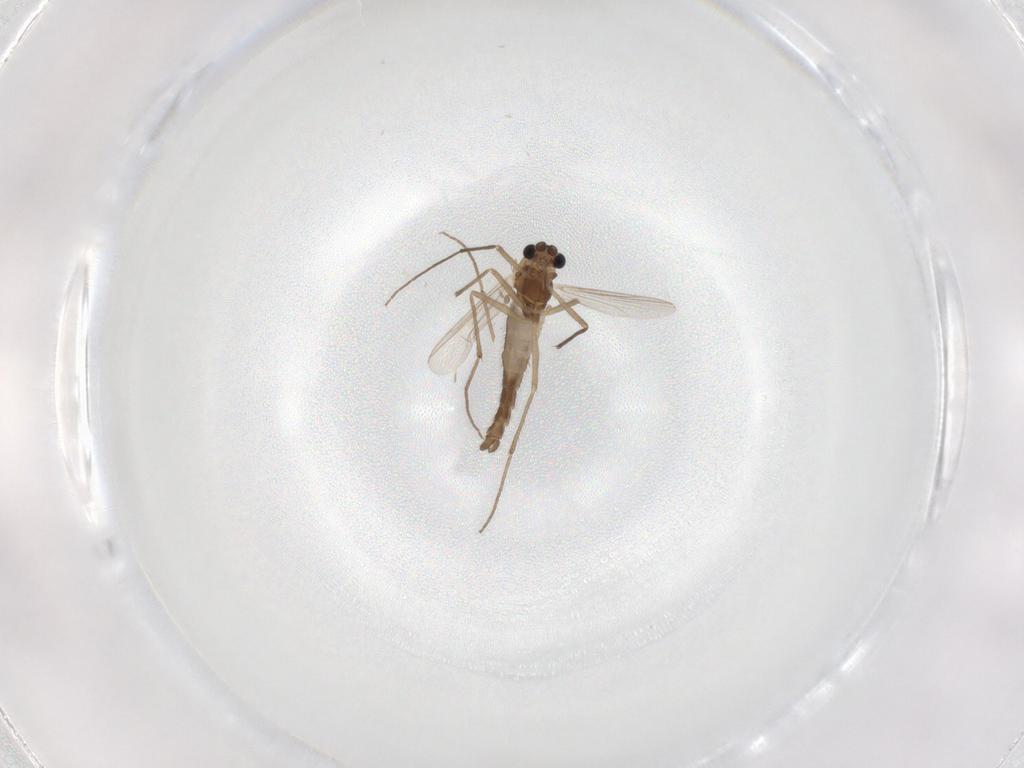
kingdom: Animalia
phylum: Arthropoda
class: Insecta
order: Diptera
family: Chironomidae
